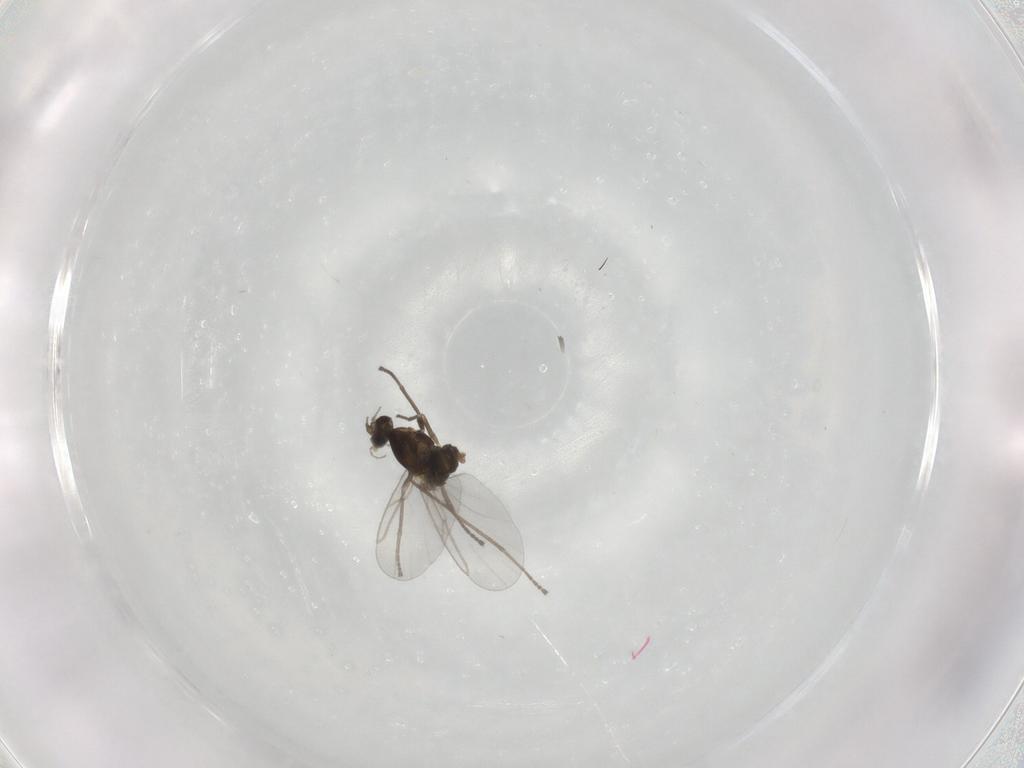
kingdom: Animalia
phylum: Arthropoda
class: Insecta
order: Diptera
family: Cecidomyiidae
